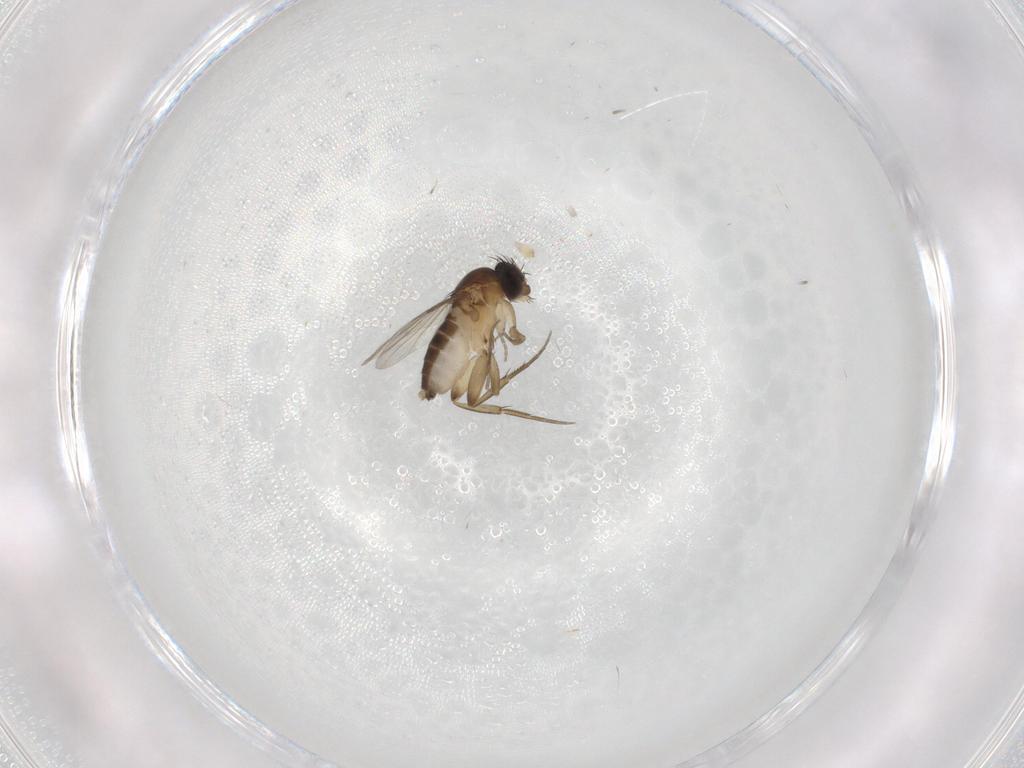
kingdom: Animalia
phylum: Arthropoda
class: Insecta
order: Diptera
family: Phoridae
